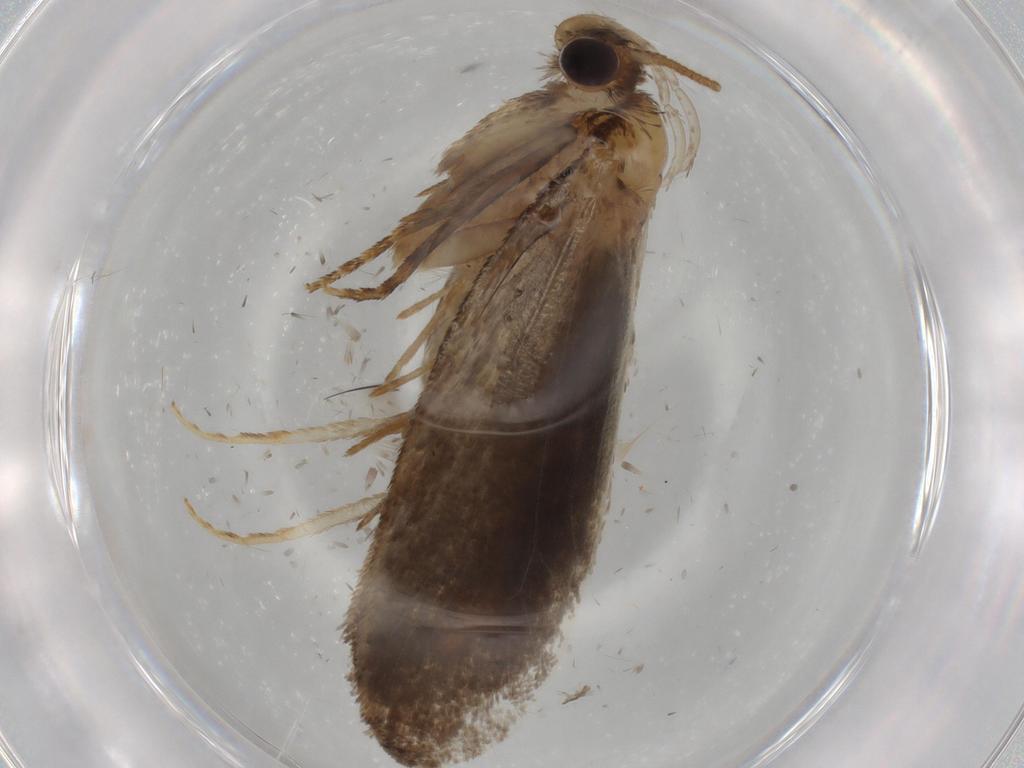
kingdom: Animalia
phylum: Arthropoda
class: Insecta
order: Lepidoptera
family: Tineidae
